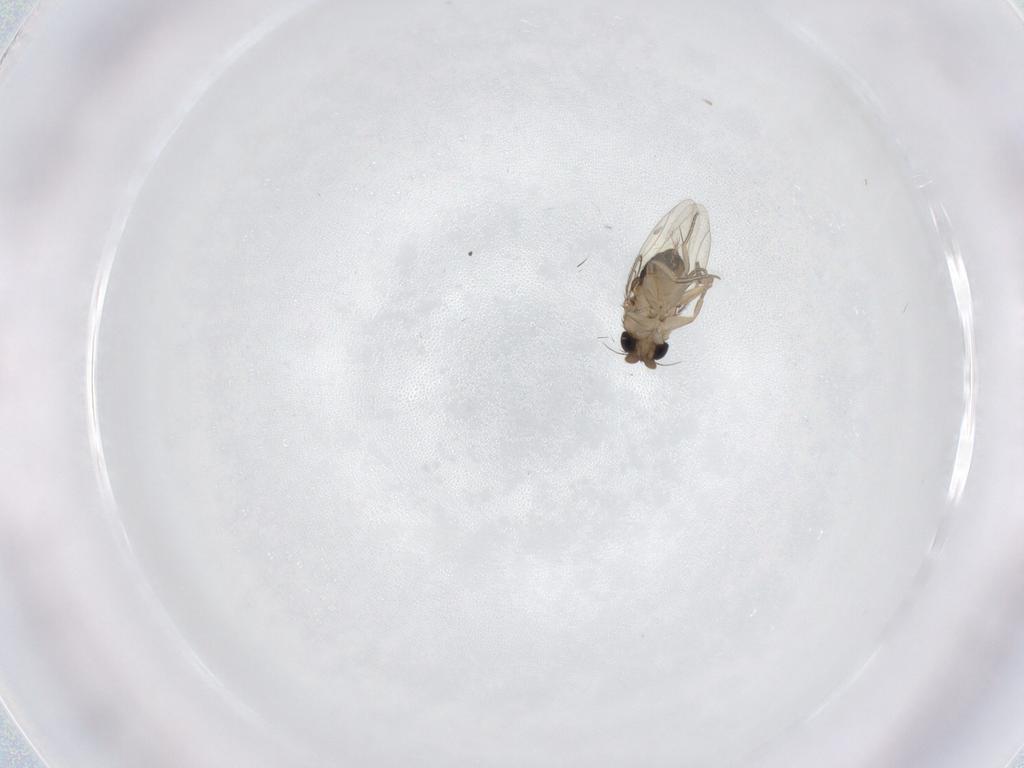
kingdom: Animalia
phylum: Arthropoda
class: Insecta
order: Diptera
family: Phoridae
